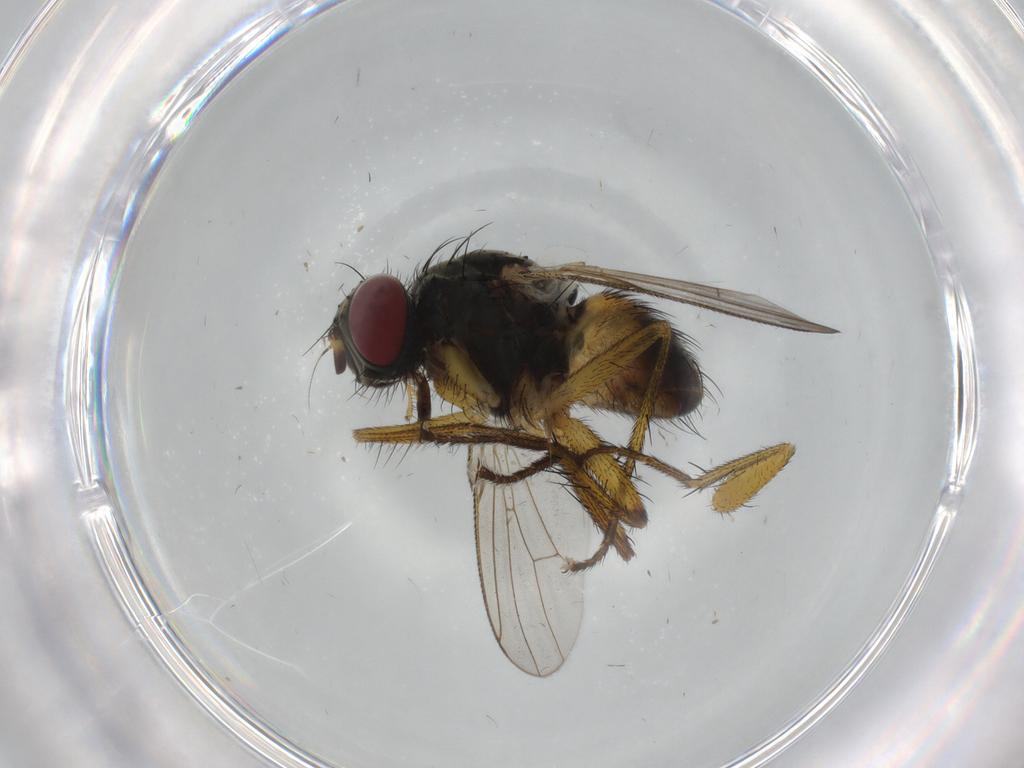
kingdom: Animalia
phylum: Arthropoda
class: Insecta
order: Diptera
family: Muscidae
